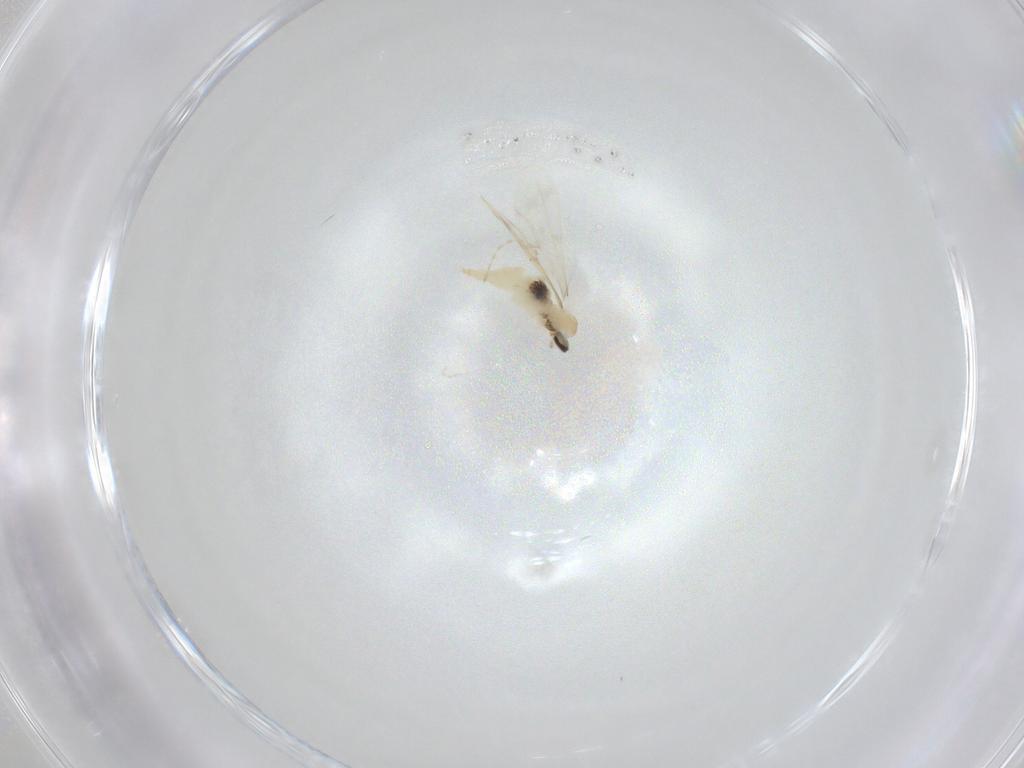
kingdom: Animalia
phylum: Arthropoda
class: Insecta
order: Diptera
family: Cecidomyiidae
